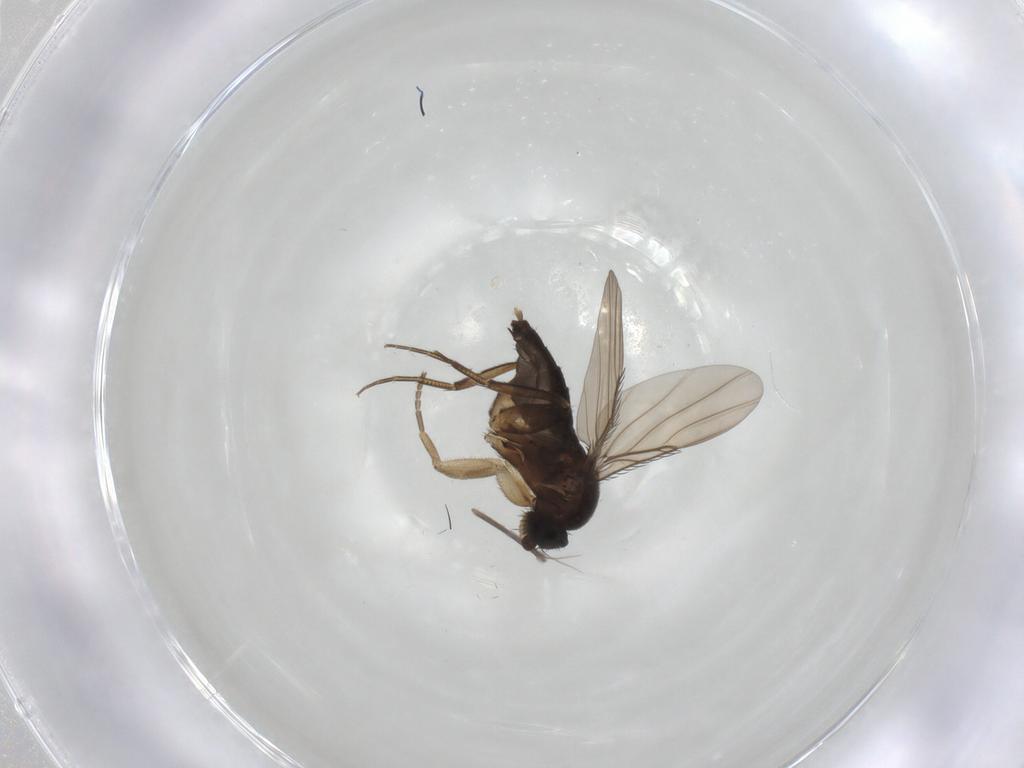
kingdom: Animalia
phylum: Arthropoda
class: Insecta
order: Diptera
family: Phoridae
